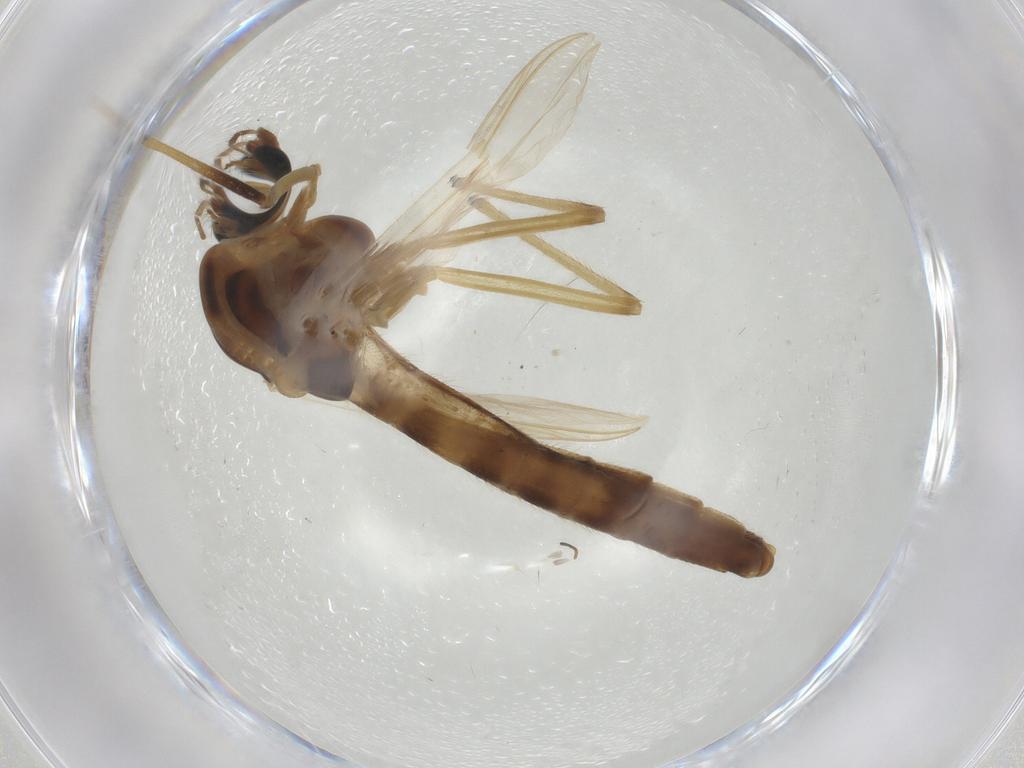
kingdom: Animalia
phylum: Arthropoda
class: Insecta
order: Diptera
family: Chironomidae
